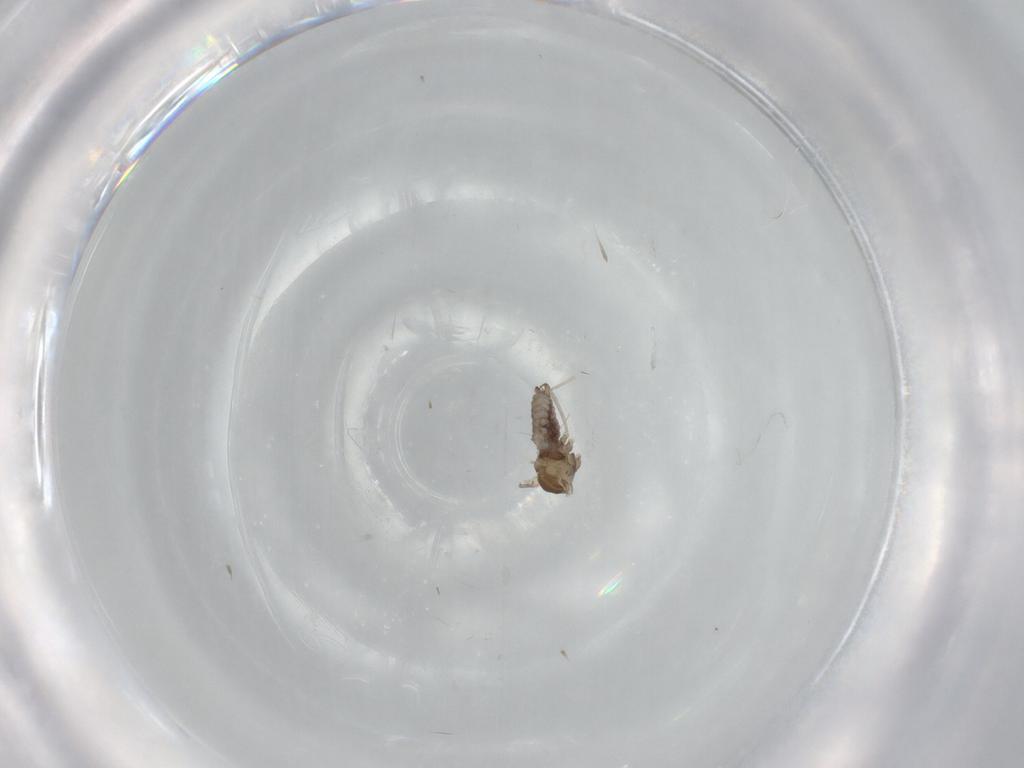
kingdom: Animalia
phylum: Arthropoda
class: Insecta
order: Diptera
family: Cecidomyiidae
